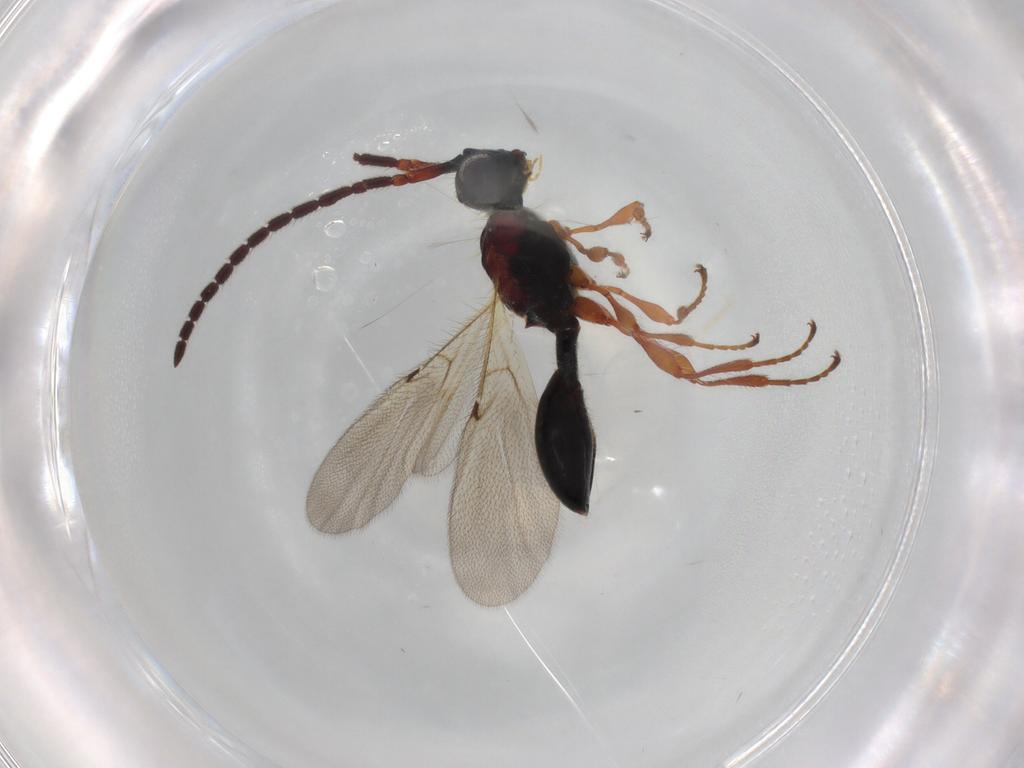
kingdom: Animalia
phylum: Arthropoda
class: Insecta
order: Hymenoptera
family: Diapriidae
